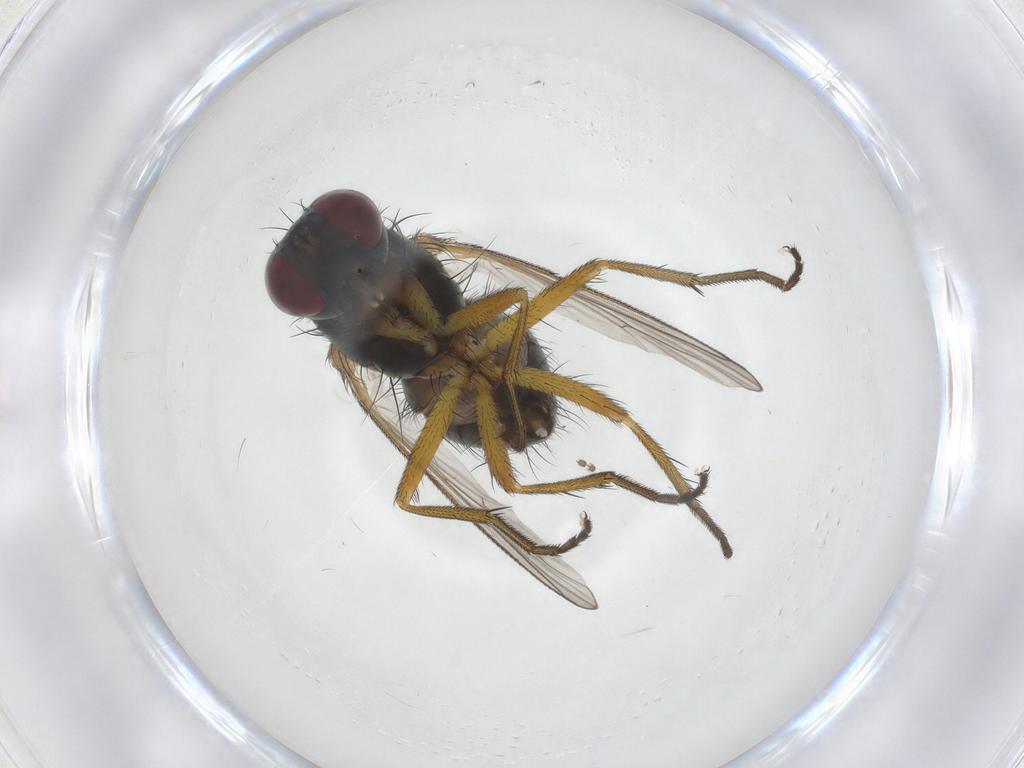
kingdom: Animalia
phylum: Arthropoda
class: Insecta
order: Diptera
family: Muscidae
